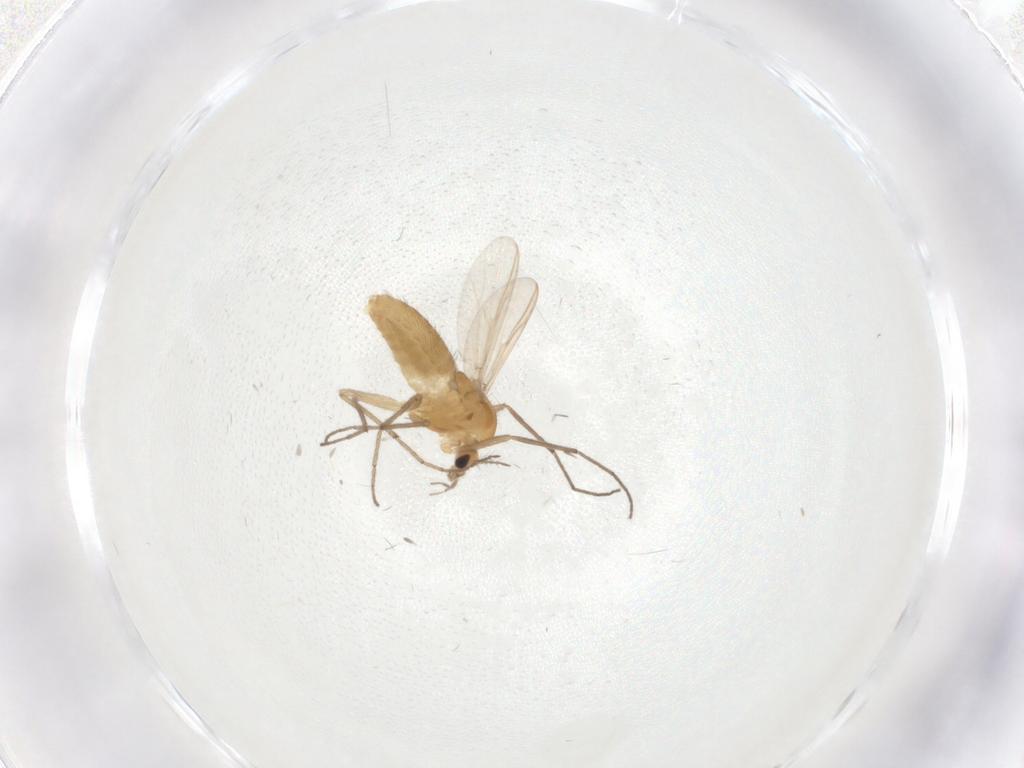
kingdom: Animalia
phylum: Arthropoda
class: Insecta
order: Diptera
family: Chironomidae
